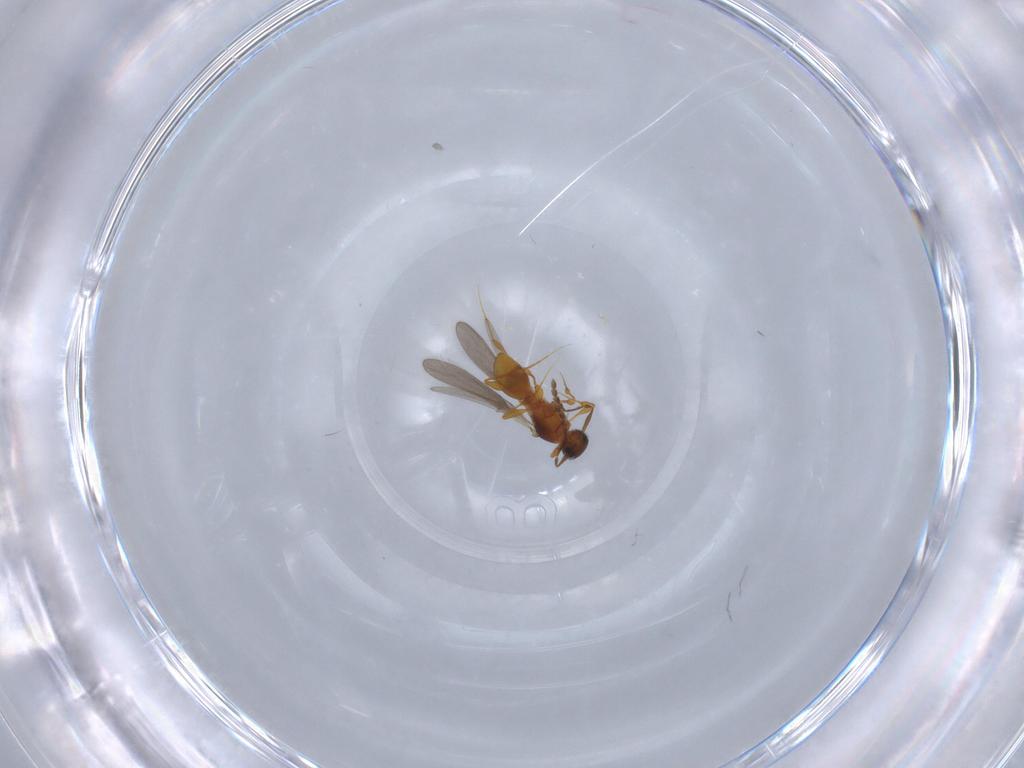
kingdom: Animalia
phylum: Arthropoda
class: Insecta
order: Hymenoptera
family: Platygastridae
